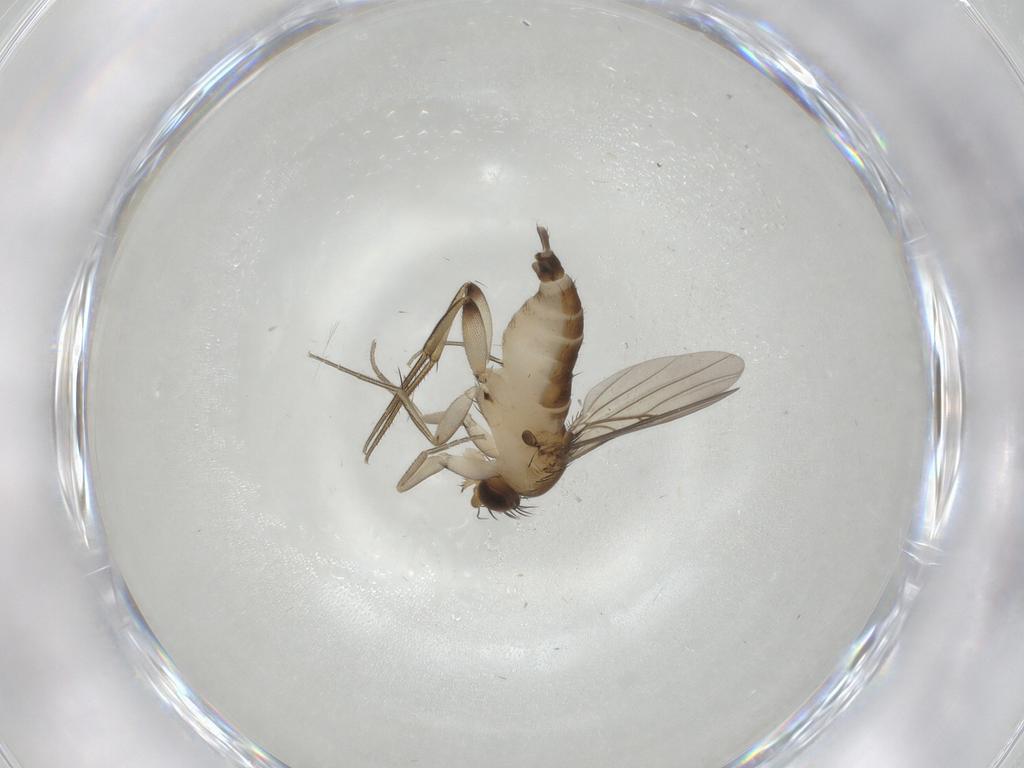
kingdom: Animalia
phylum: Arthropoda
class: Insecta
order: Diptera
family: Phoridae
